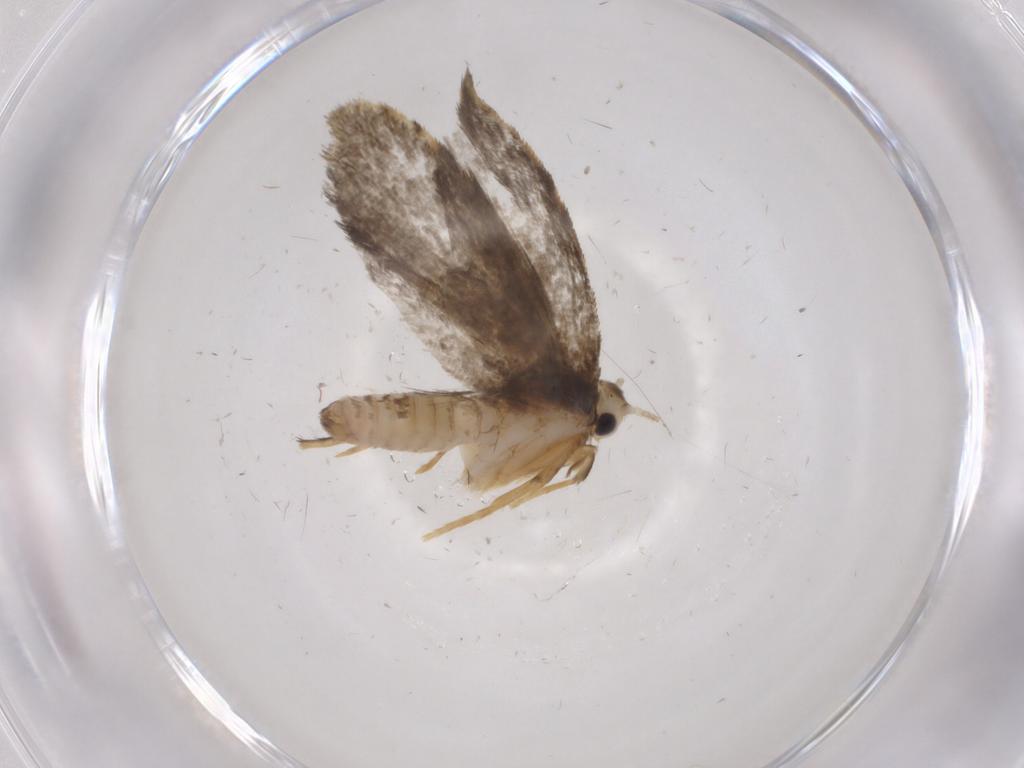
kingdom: Animalia
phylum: Arthropoda
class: Insecta
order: Lepidoptera
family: Psychidae
